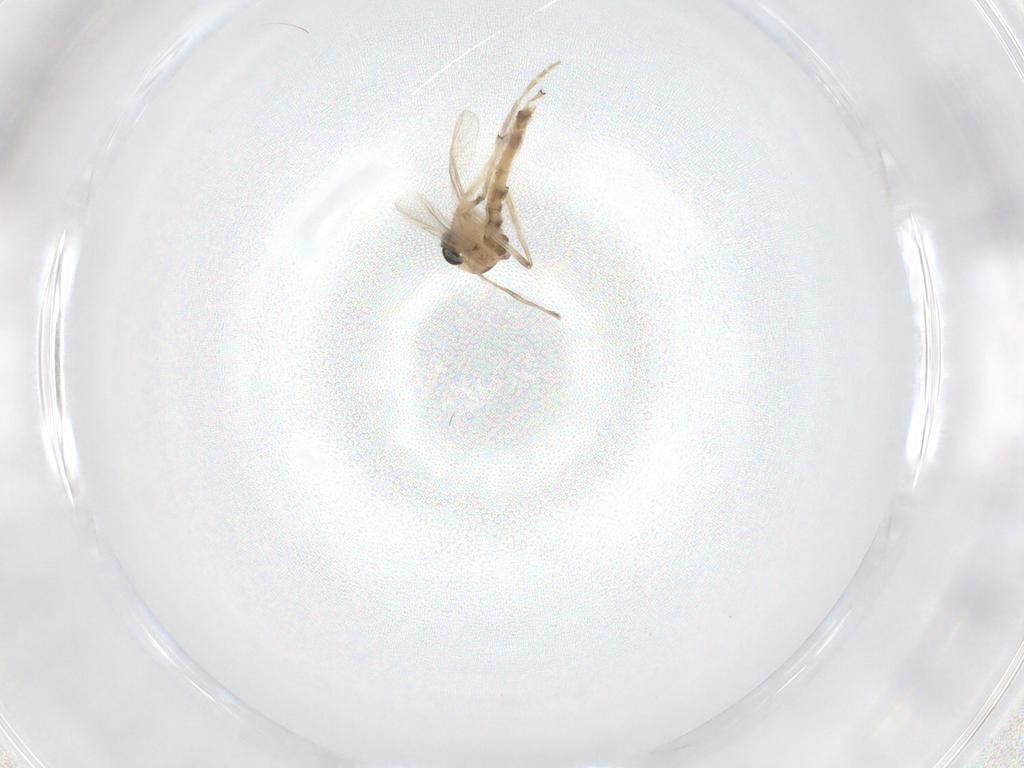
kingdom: Animalia
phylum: Arthropoda
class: Insecta
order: Diptera
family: Chironomidae
